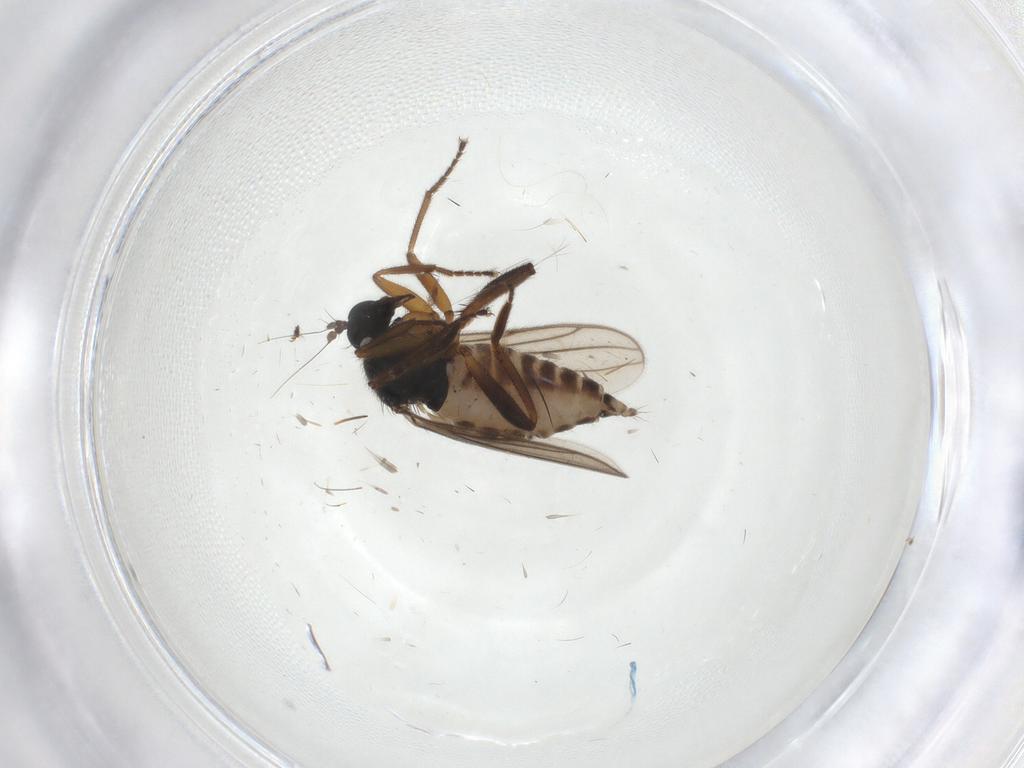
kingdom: Animalia
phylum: Arthropoda
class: Insecta
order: Diptera
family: Hybotidae
